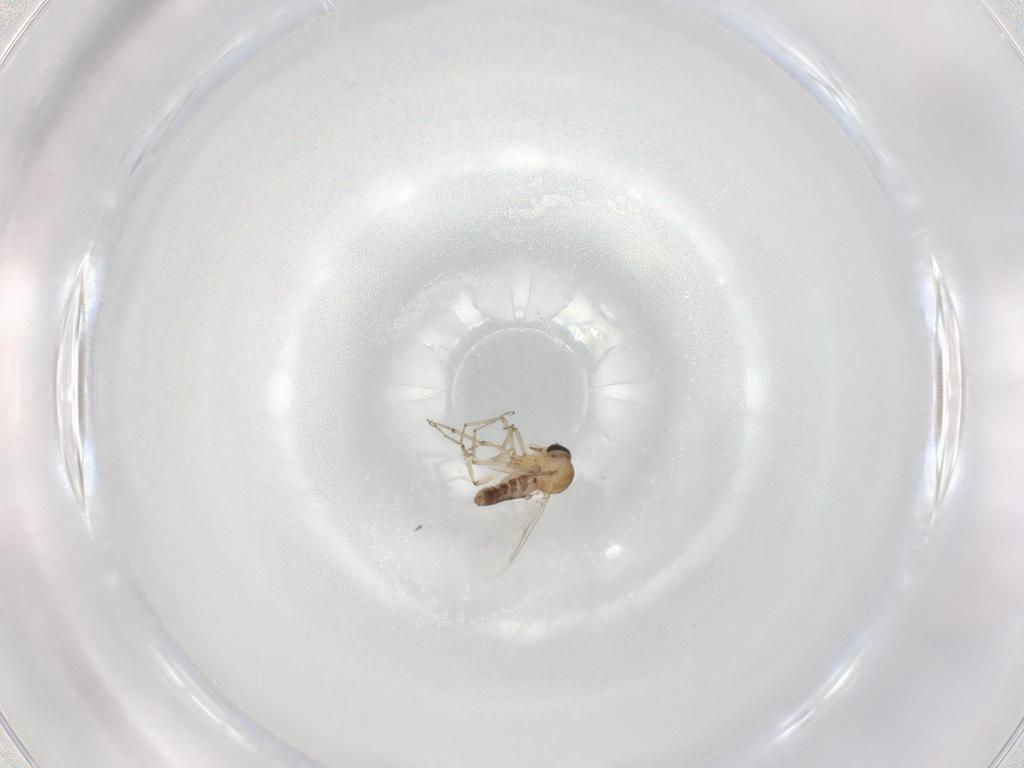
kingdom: Animalia
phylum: Arthropoda
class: Insecta
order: Diptera
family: Ceratopogonidae
